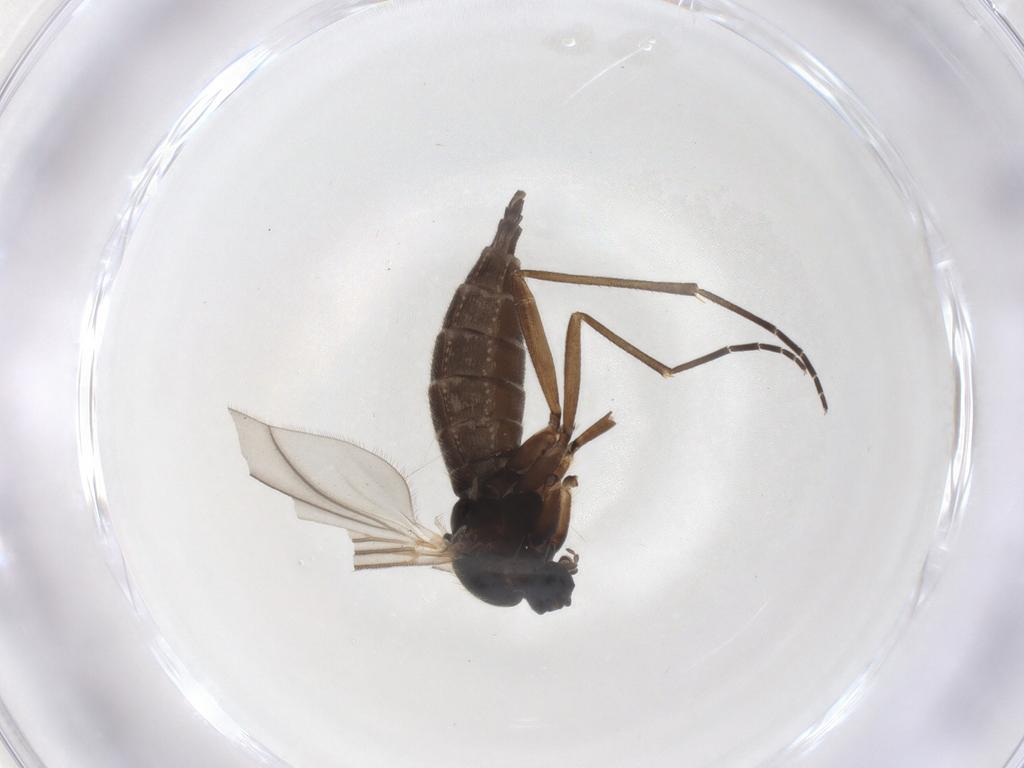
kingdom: Animalia
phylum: Arthropoda
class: Insecta
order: Diptera
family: Sciaridae
